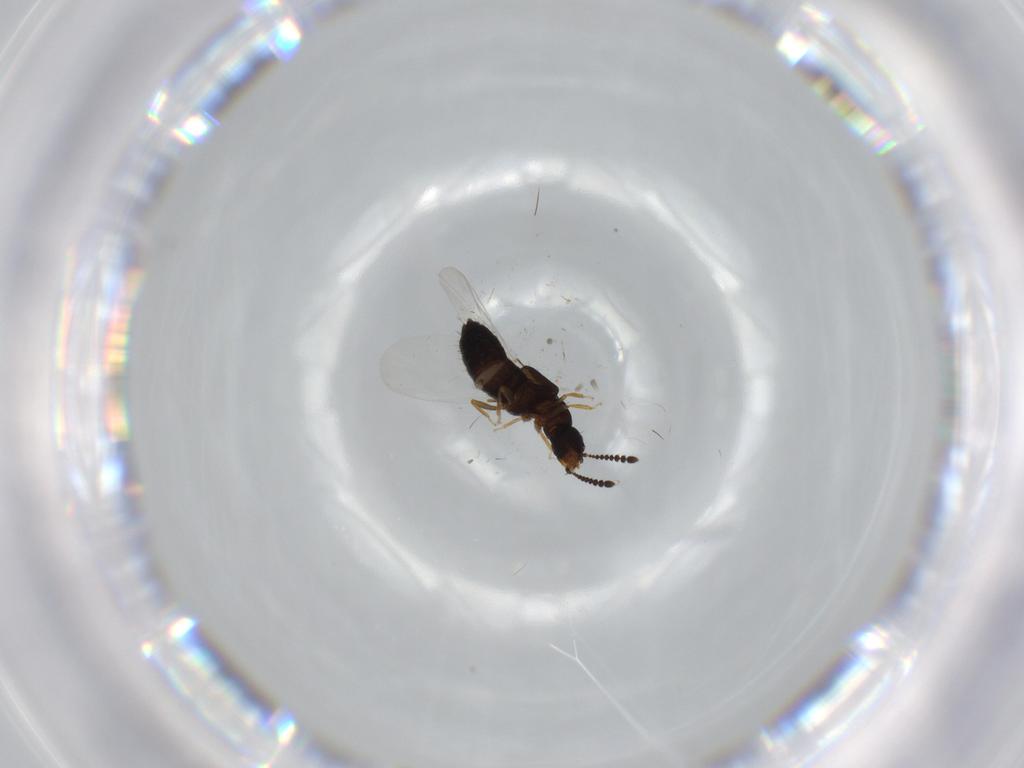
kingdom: Animalia
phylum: Arthropoda
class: Insecta
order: Coleoptera
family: Staphylinidae
